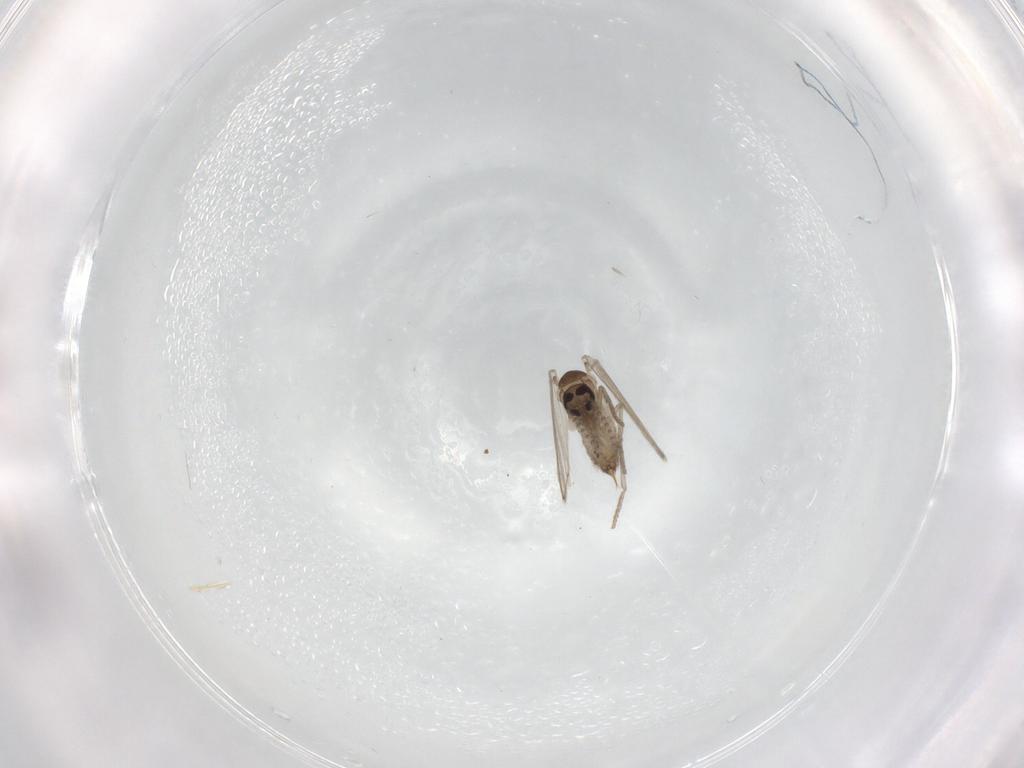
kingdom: Animalia
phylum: Arthropoda
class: Insecta
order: Diptera
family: Psychodidae
